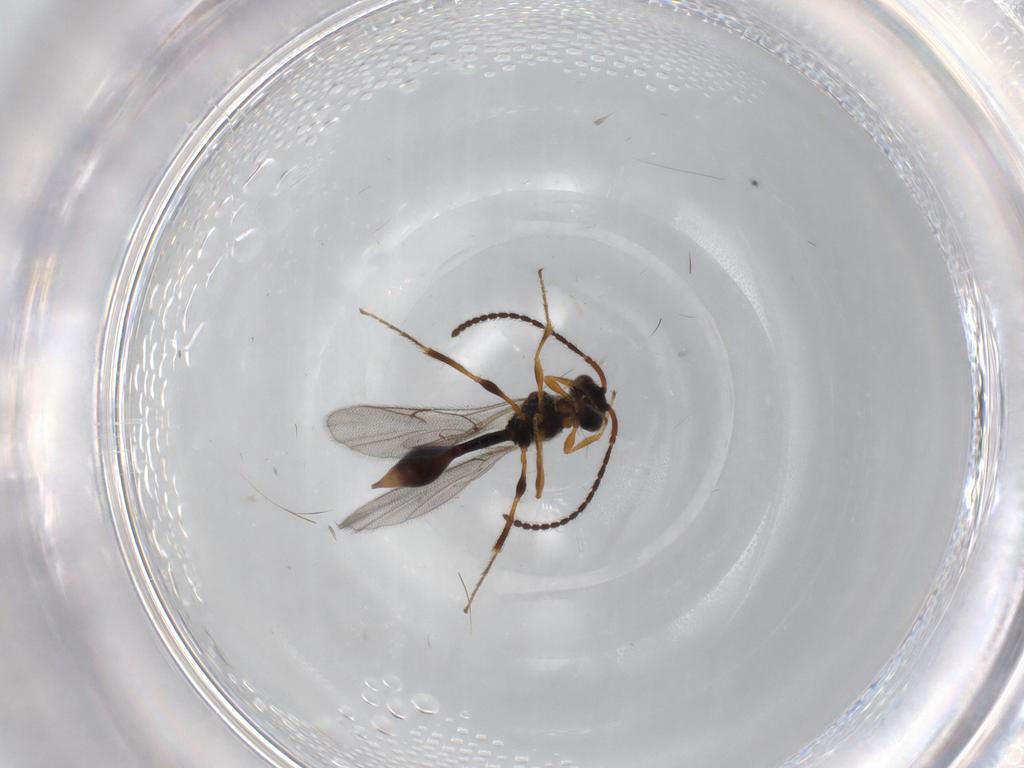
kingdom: Animalia
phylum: Arthropoda
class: Insecta
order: Hymenoptera
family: Diapriidae
